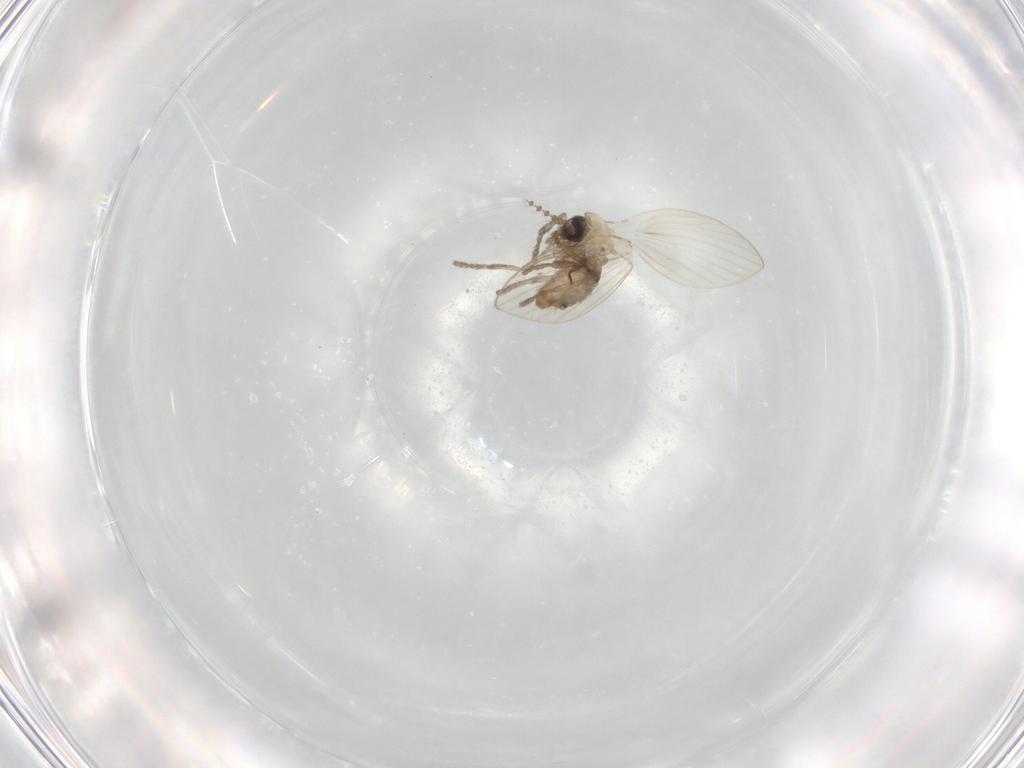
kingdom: Animalia
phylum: Arthropoda
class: Insecta
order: Diptera
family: Psychodidae
